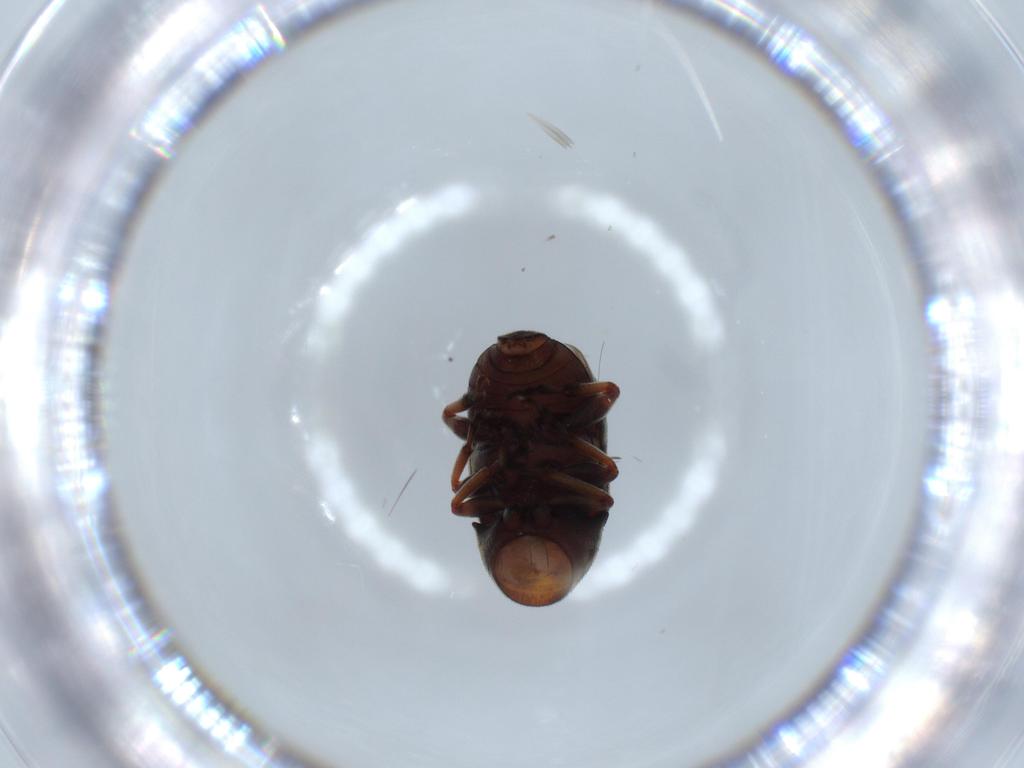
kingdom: Animalia
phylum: Arthropoda
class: Insecta
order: Coleoptera
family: Anthribidae
